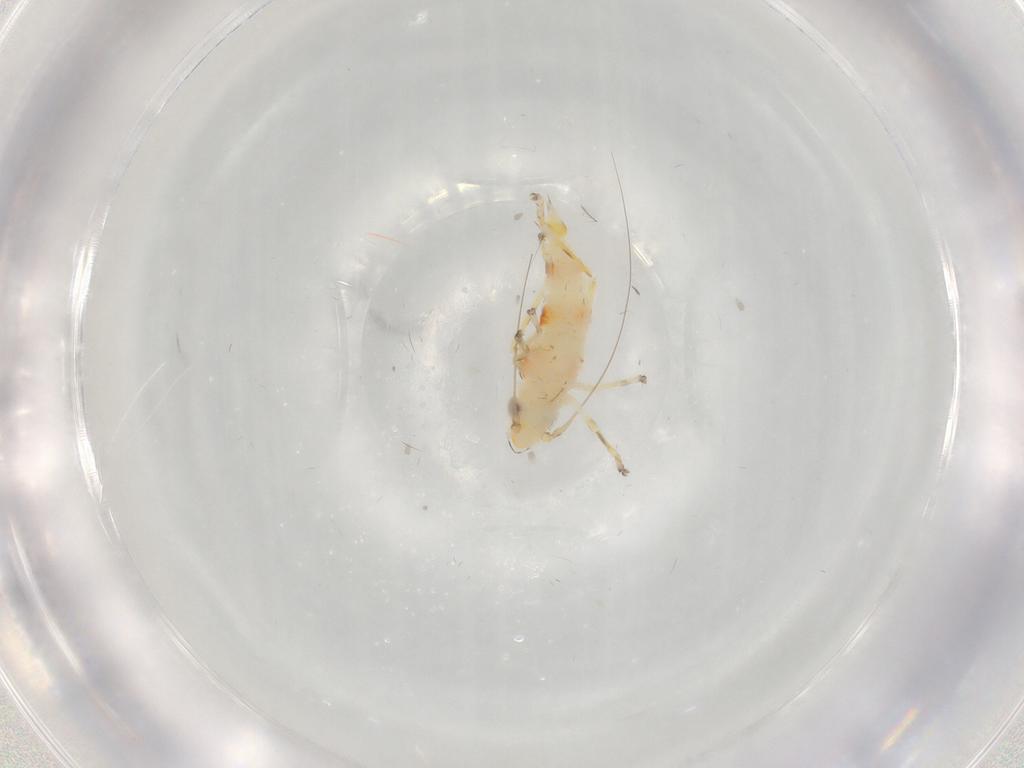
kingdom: Animalia
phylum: Arthropoda
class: Insecta
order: Hemiptera
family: Cicadellidae
